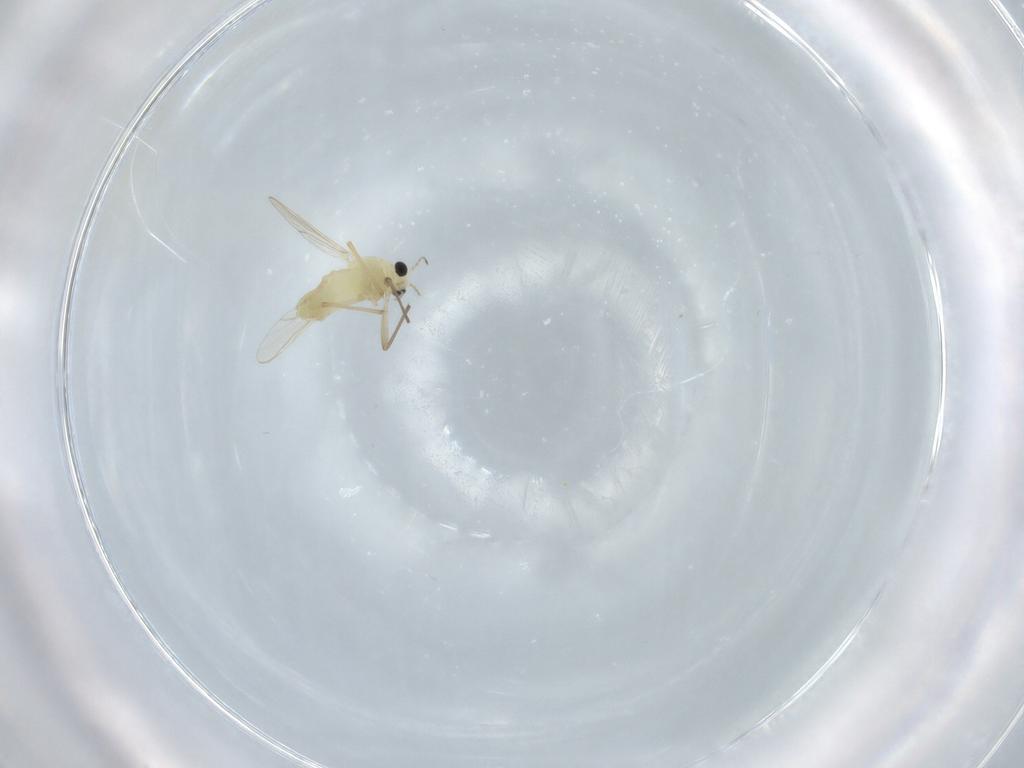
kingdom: Animalia
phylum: Arthropoda
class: Insecta
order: Diptera
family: Chironomidae
